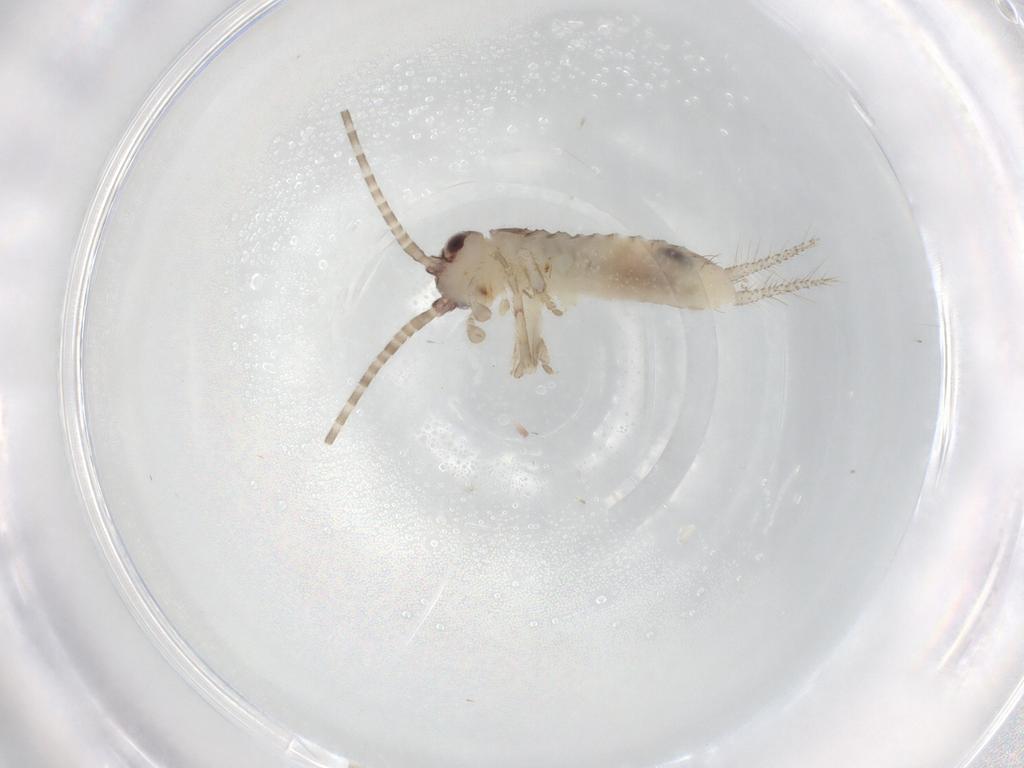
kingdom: Animalia
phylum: Arthropoda
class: Insecta
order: Orthoptera
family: Gryllidae
